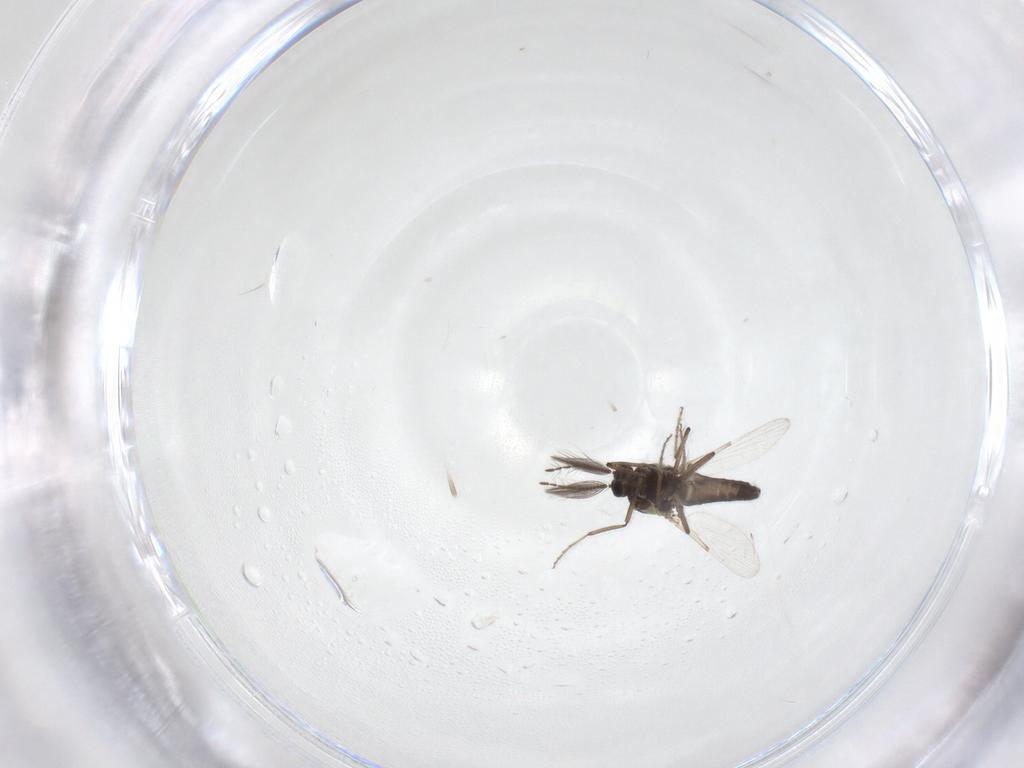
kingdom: Animalia
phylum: Arthropoda
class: Insecta
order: Diptera
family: Ceratopogonidae
